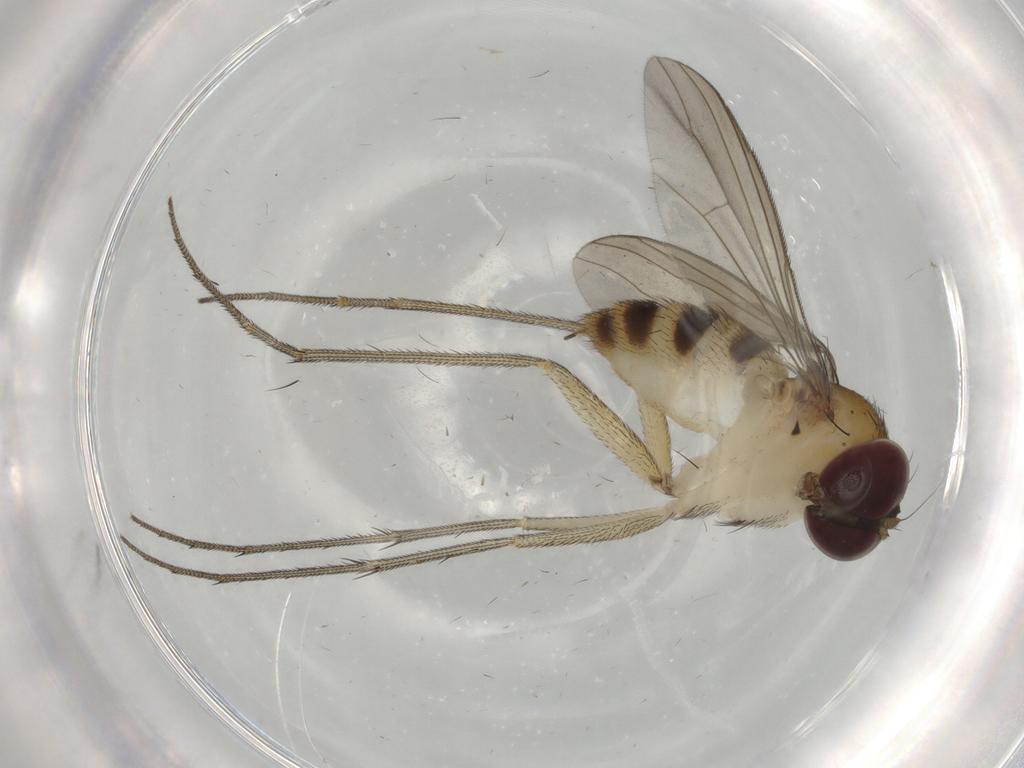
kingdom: Animalia
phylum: Arthropoda
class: Insecta
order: Diptera
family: Dolichopodidae
